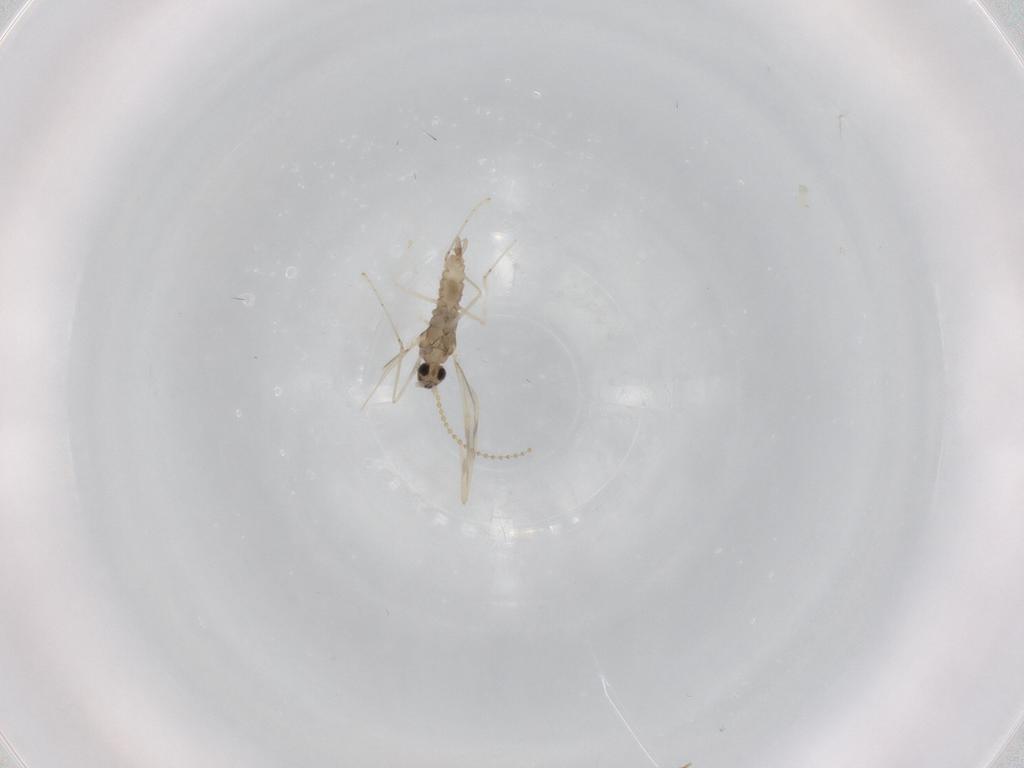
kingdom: Animalia
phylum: Arthropoda
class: Insecta
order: Diptera
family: Cecidomyiidae
